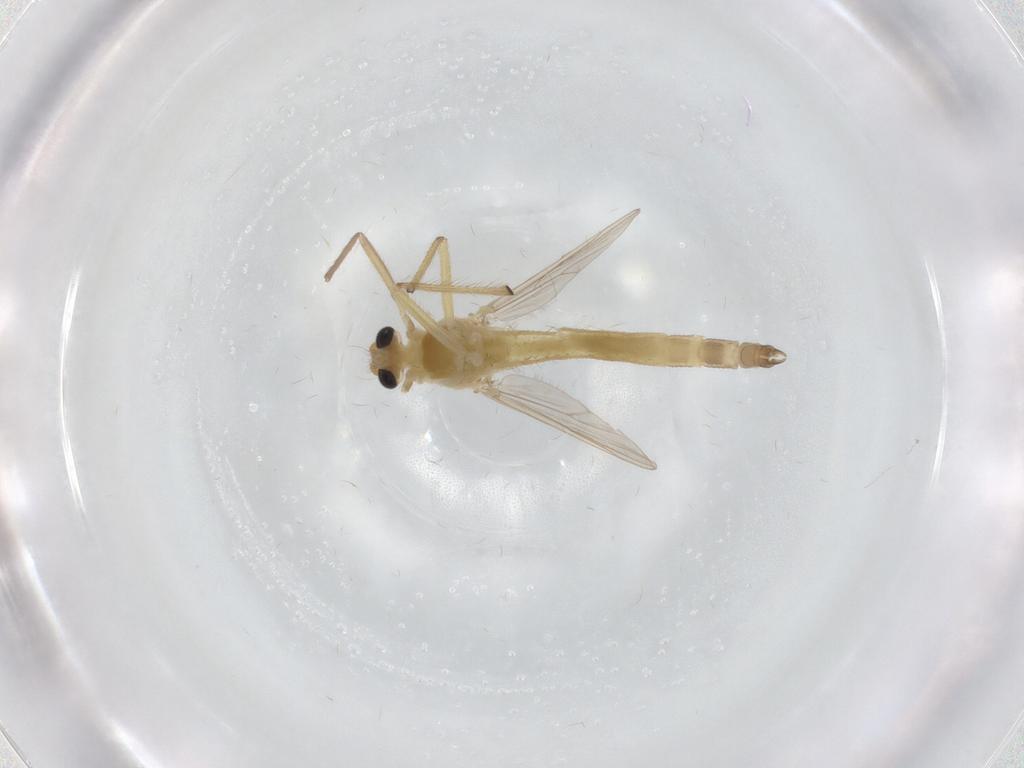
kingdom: Animalia
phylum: Arthropoda
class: Insecta
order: Diptera
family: Chironomidae
